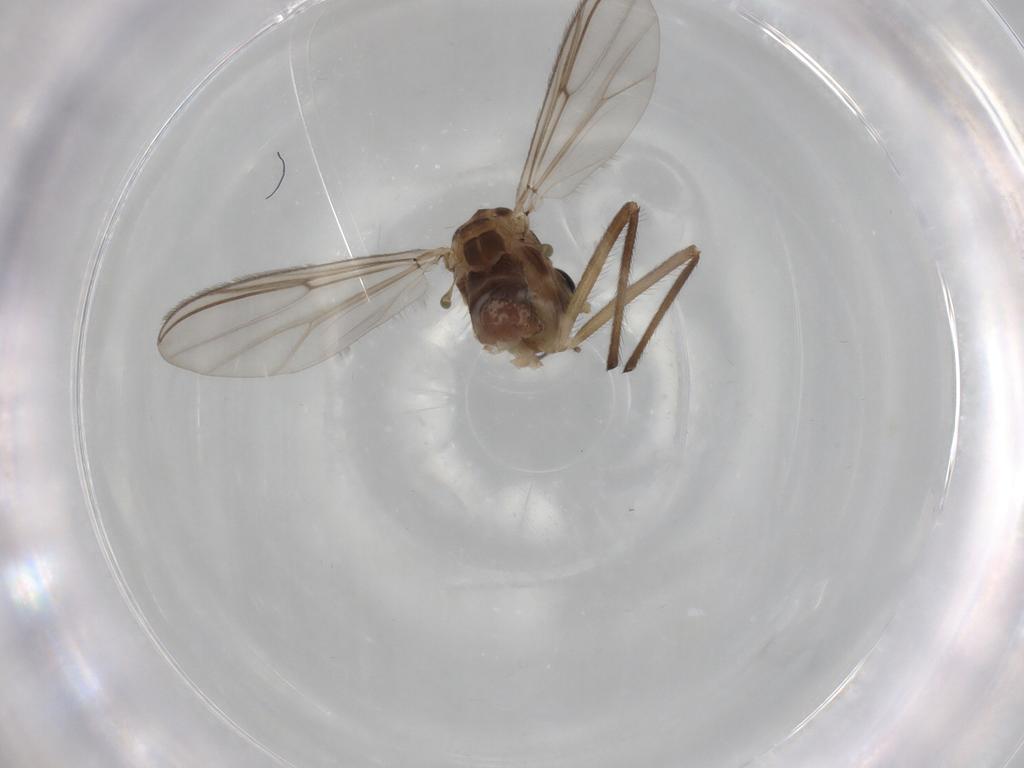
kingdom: Animalia
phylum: Arthropoda
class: Insecta
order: Diptera
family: Chironomidae
